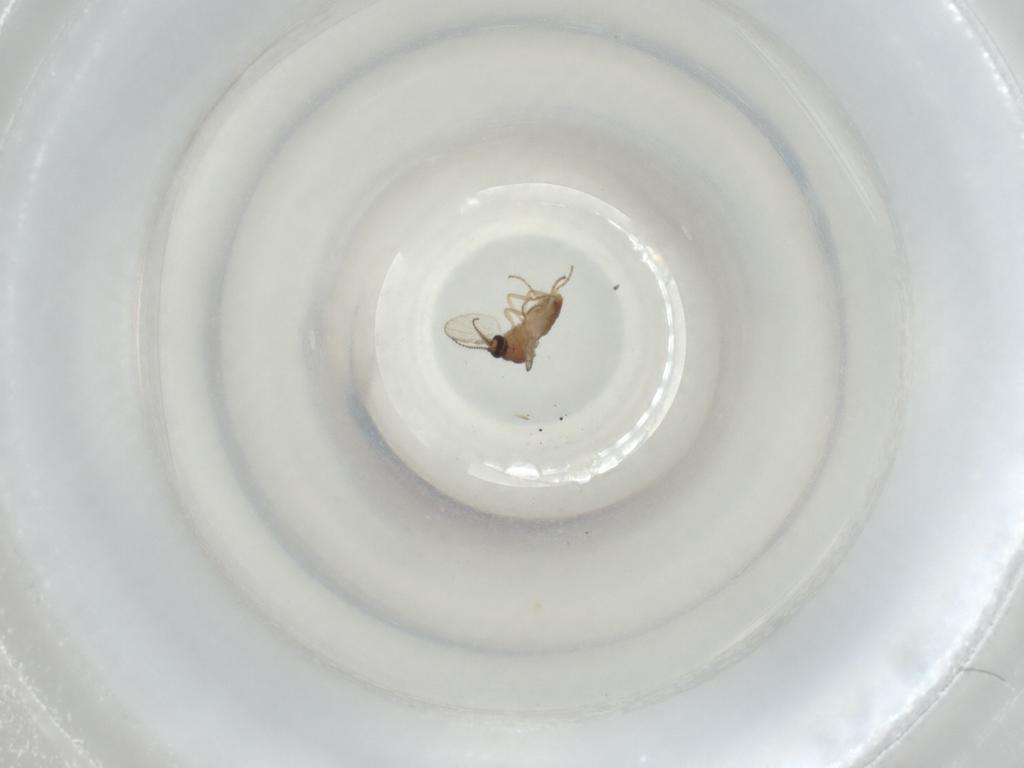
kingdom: Animalia
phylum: Arthropoda
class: Insecta
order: Diptera
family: Ceratopogonidae
